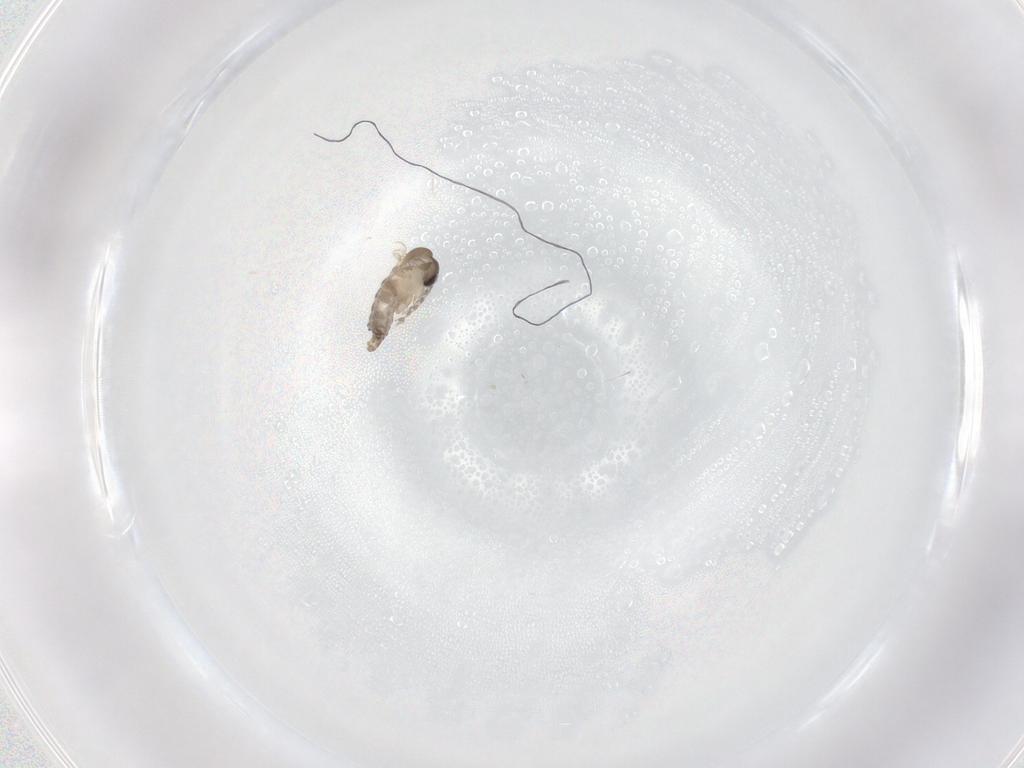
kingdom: Animalia
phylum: Arthropoda
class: Insecta
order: Diptera
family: Psychodidae
